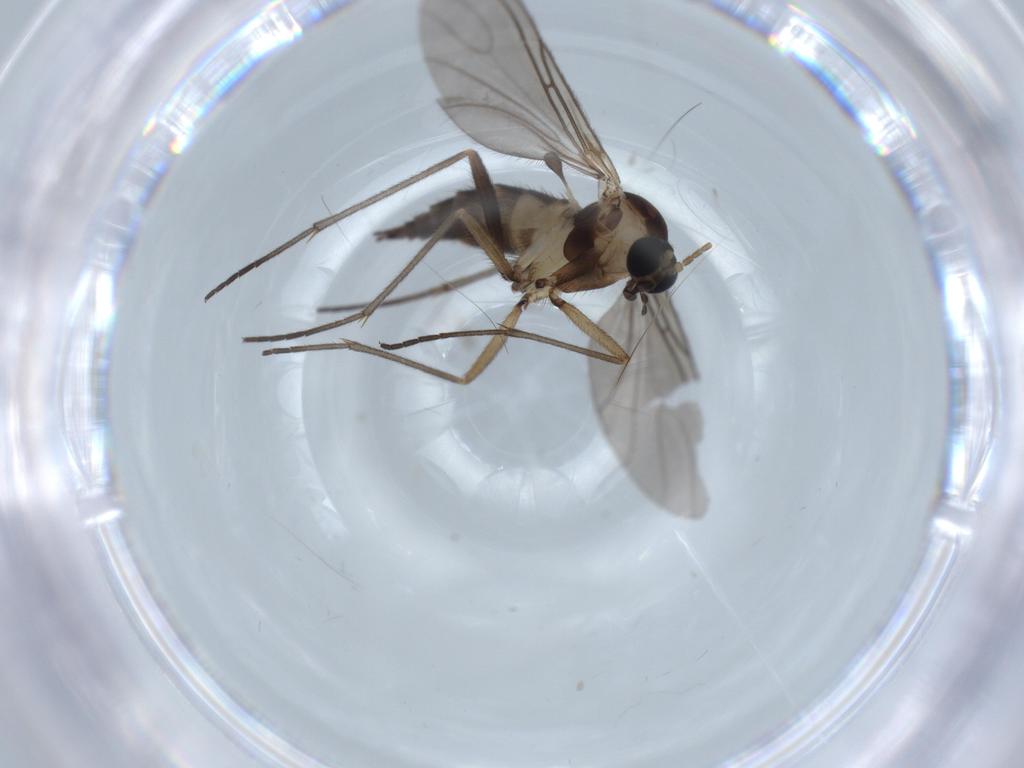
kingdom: Animalia
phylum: Arthropoda
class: Insecta
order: Diptera
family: Sciaridae
